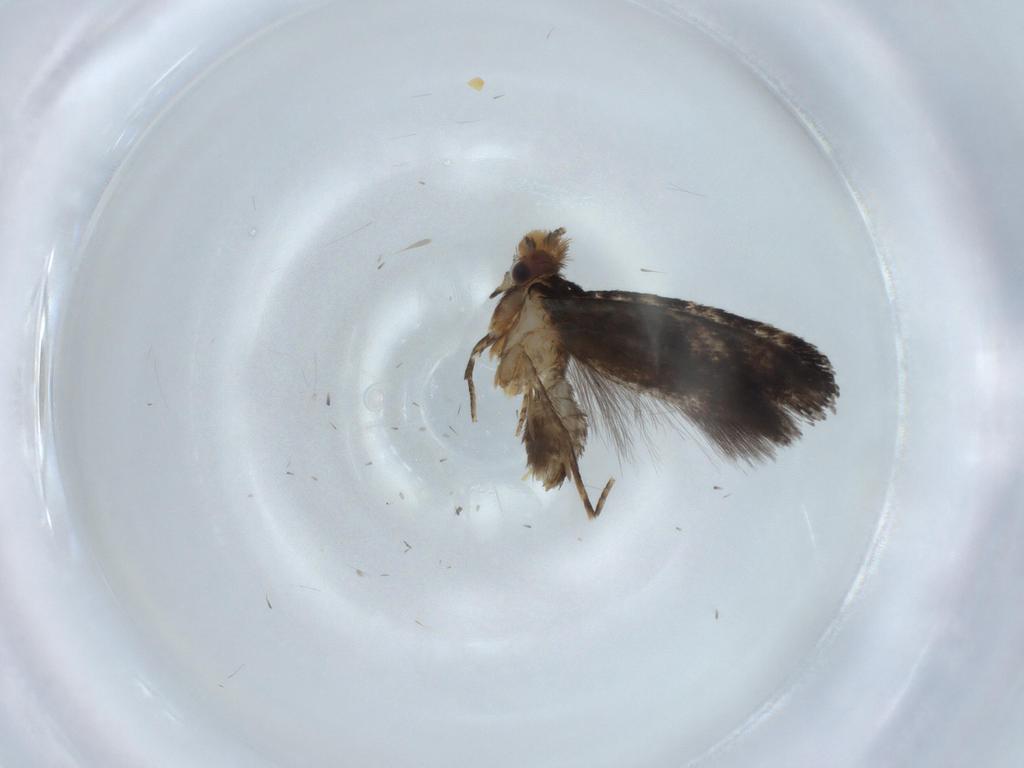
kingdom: Animalia
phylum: Arthropoda
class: Insecta
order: Lepidoptera
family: Tineidae
